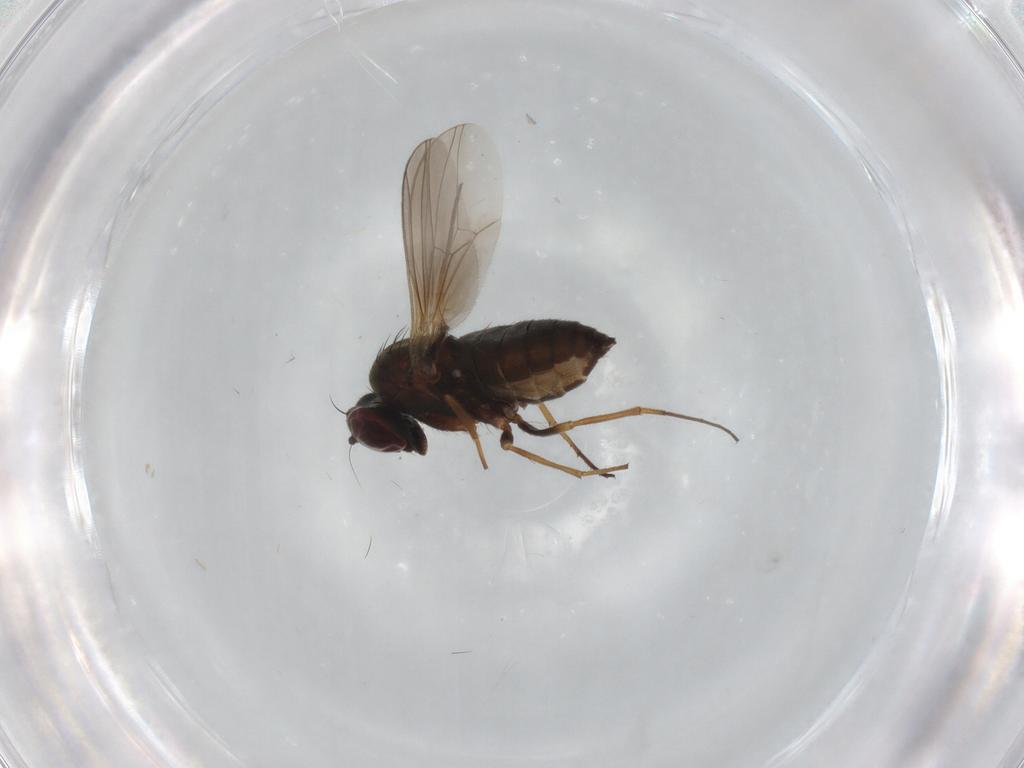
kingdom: Animalia
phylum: Arthropoda
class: Insecta
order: Diptera
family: Dolichopodidae
